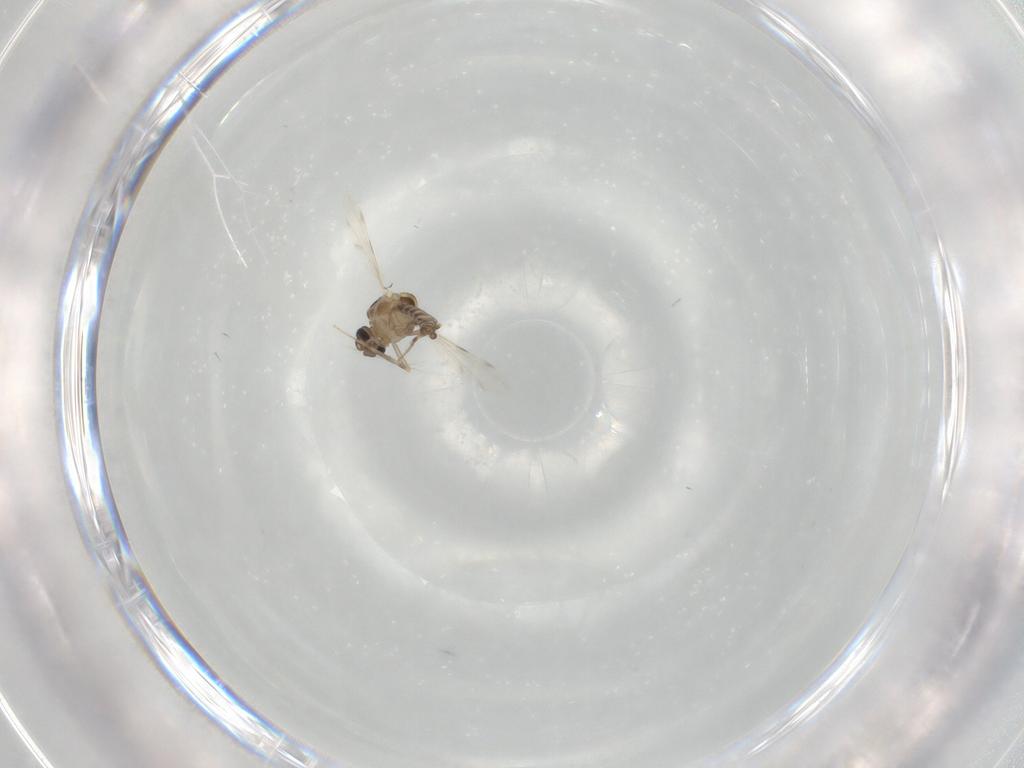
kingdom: Animalia
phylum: Arthropoda
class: Insecta
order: Diptera
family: Ceratopogonidae
